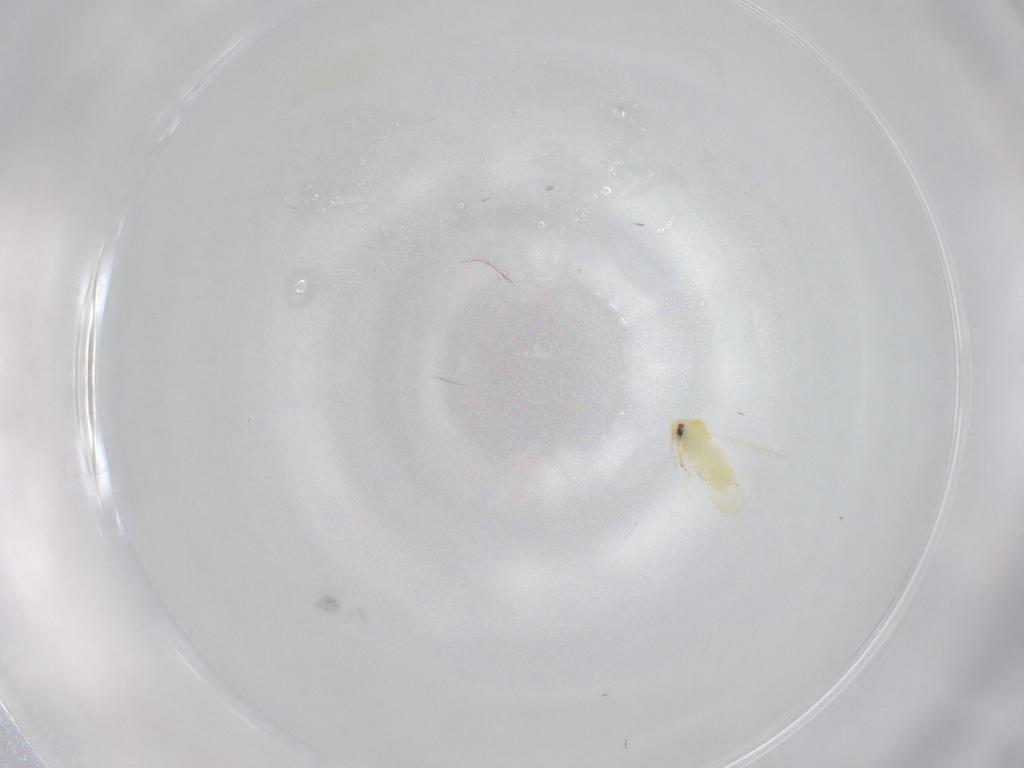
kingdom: Animalia
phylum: Arthropoda
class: Insecta
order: Hemiptera
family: Aleyrodidae
